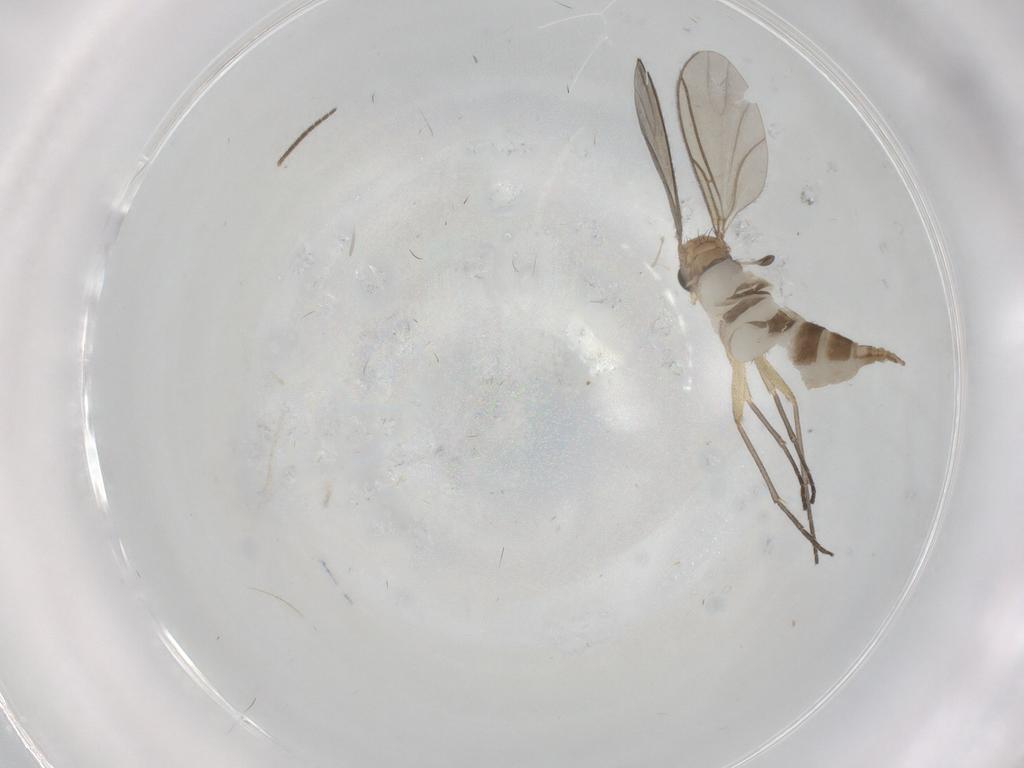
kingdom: Animalia
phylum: Arthropoda
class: Insecta
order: Diptera
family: Sciaridae
